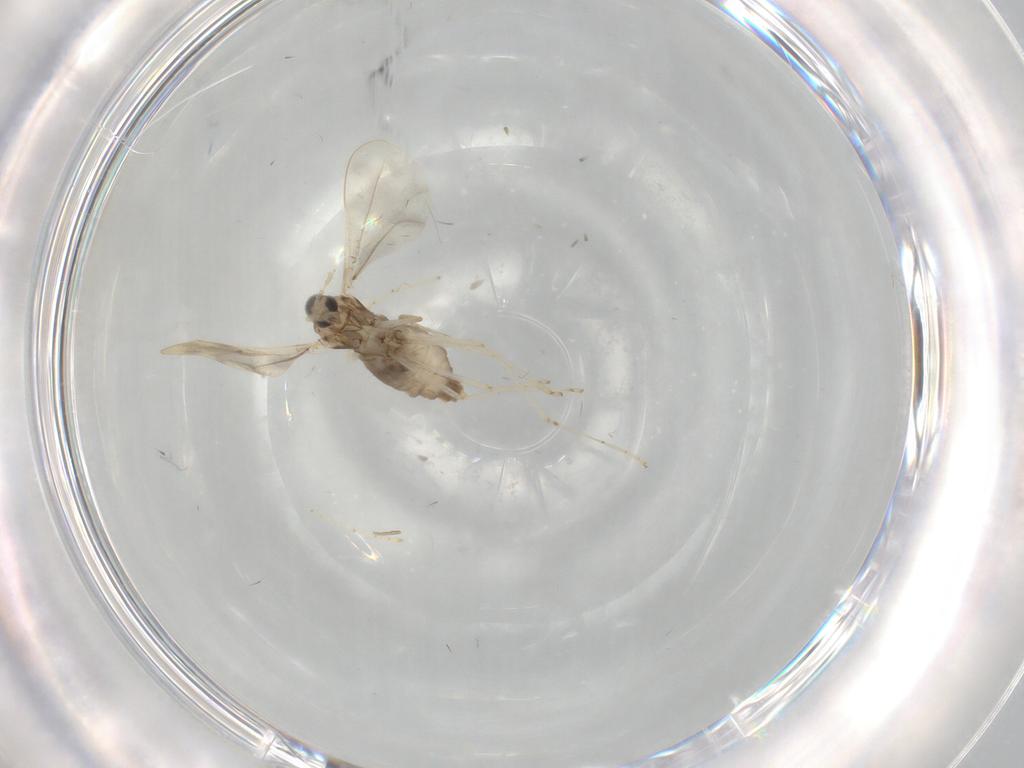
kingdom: Animalia
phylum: Arthropoda
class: Insecta
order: Diptera
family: Cecidomyiidae
